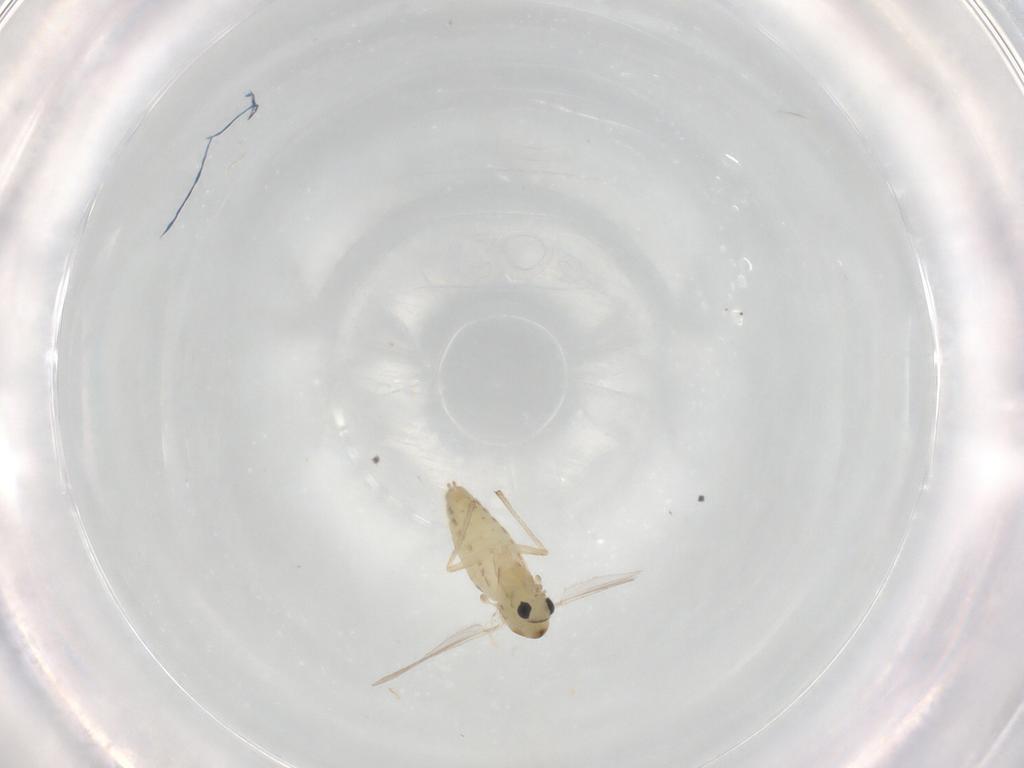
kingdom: Animalia
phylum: Arthropoda
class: Insecta
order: Diptera
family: Chironomidae
